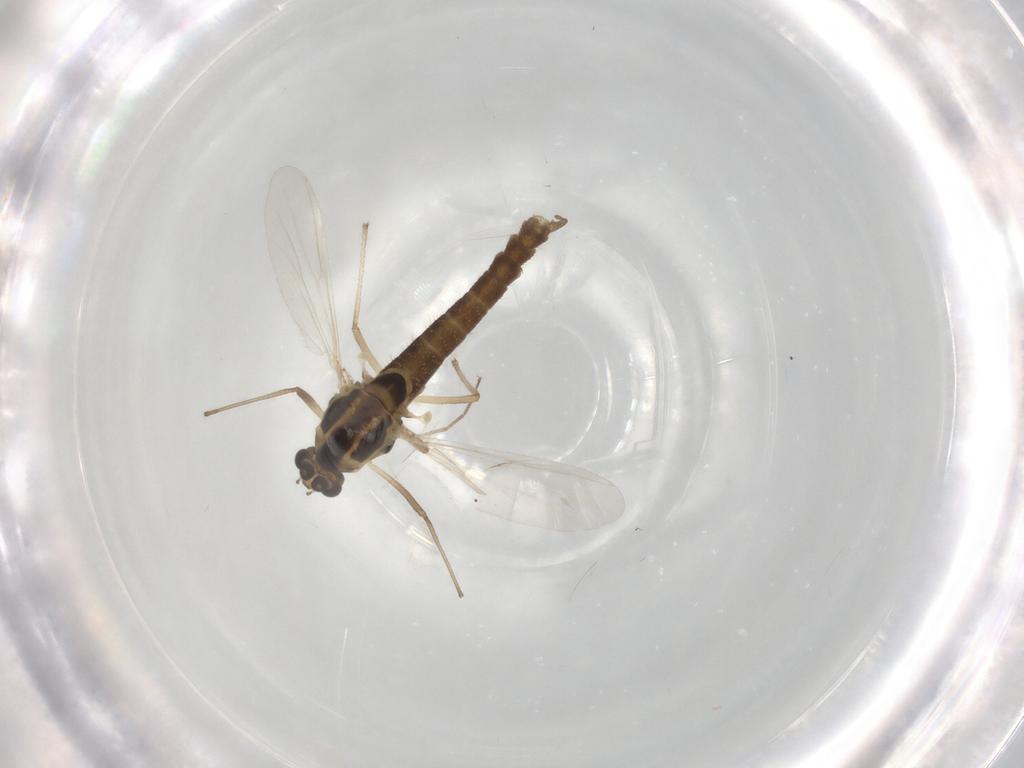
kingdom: Animalia
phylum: Arthropoda
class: Insecta
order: Diptera
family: Chironomidae
